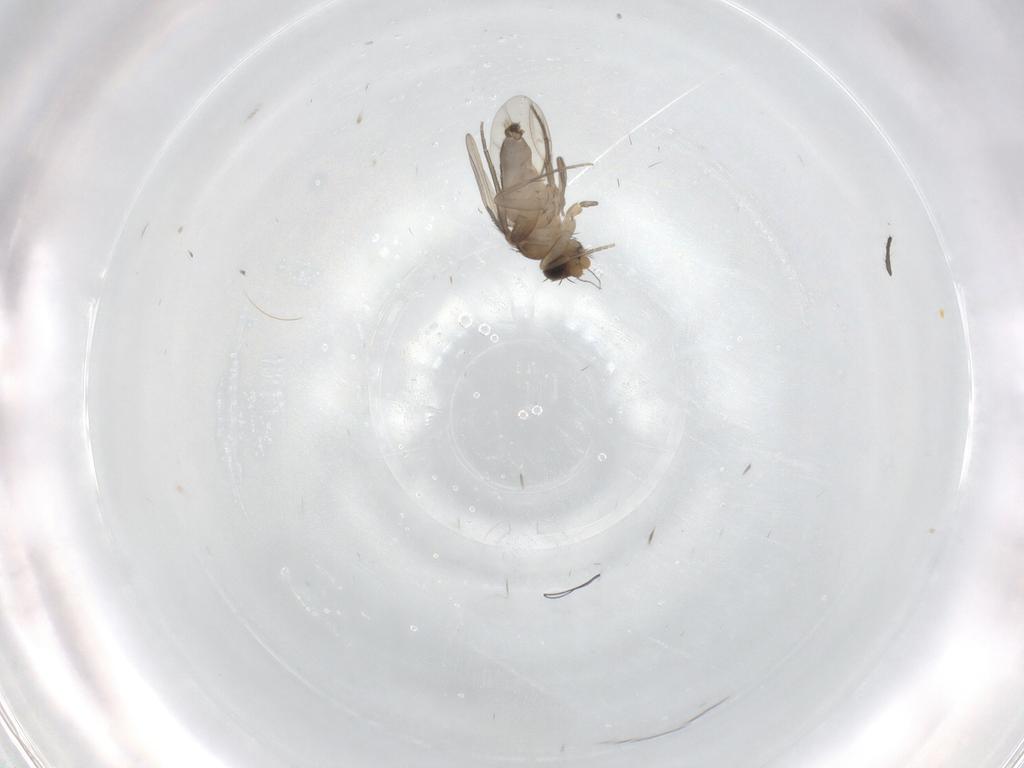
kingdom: Animalia
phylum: Arthropoda
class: Insecta
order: Diptera
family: Phoridae
